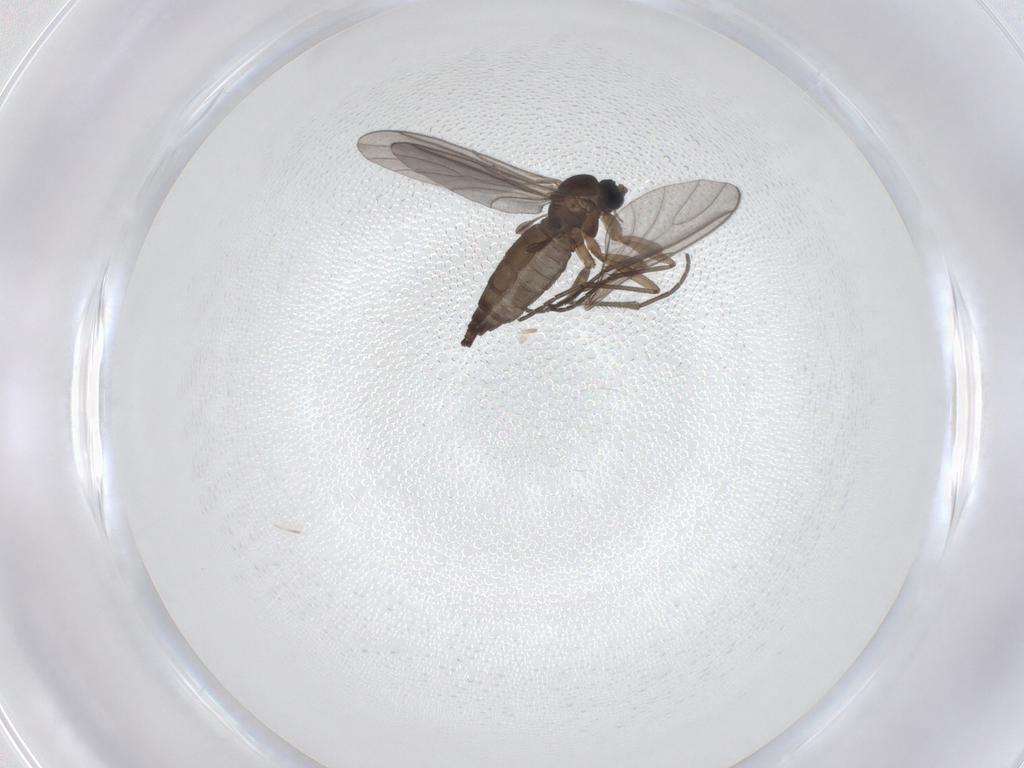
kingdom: Animalia
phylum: Arthropoda
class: Insecta
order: Diptera
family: Sciaridae
